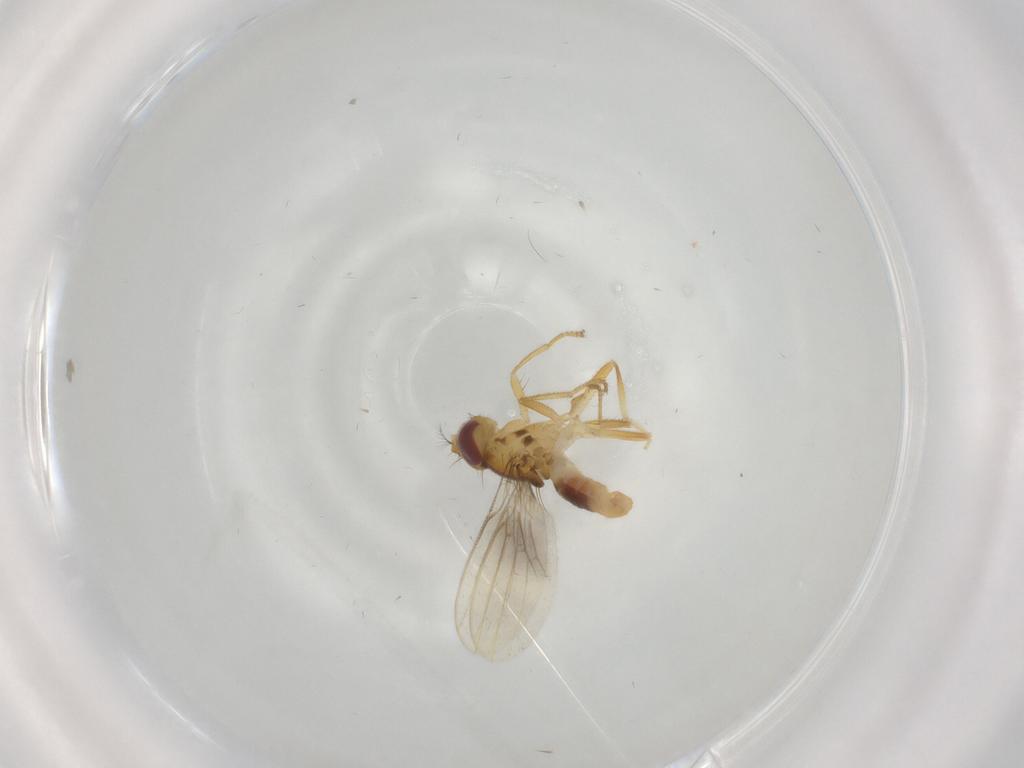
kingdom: Animalia
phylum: Arthropoda
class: Insecta
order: Diptera
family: Periscelididae
